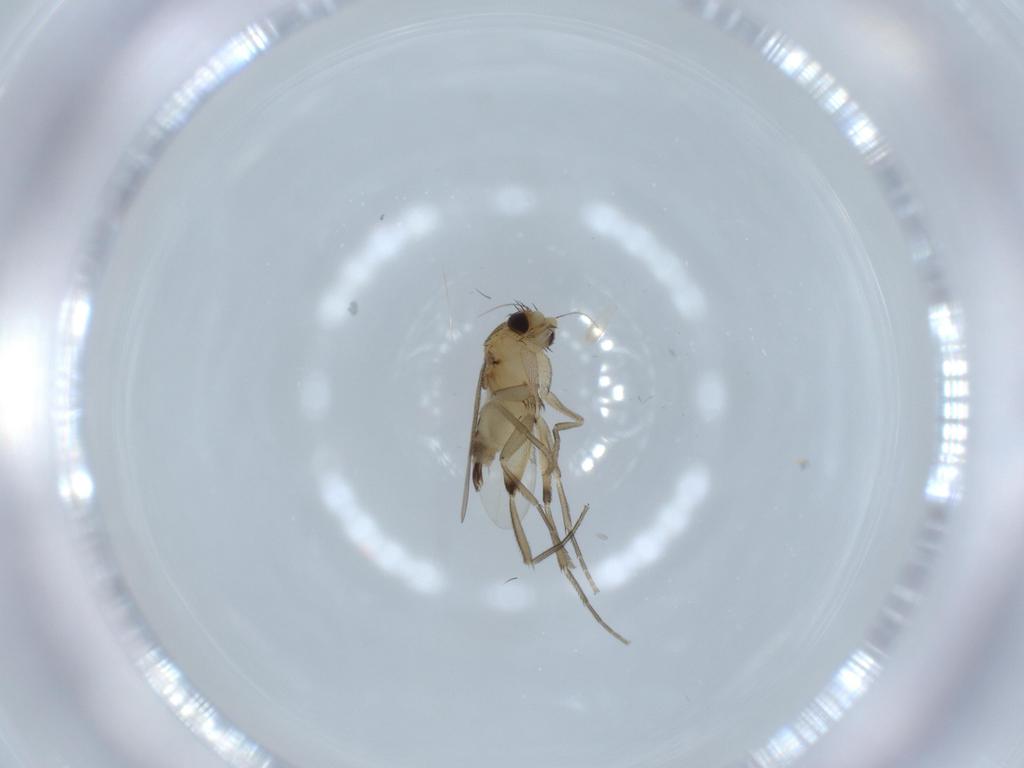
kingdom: Animalia
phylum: Arthropoda
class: Insecta
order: Diptera
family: Phoridae
